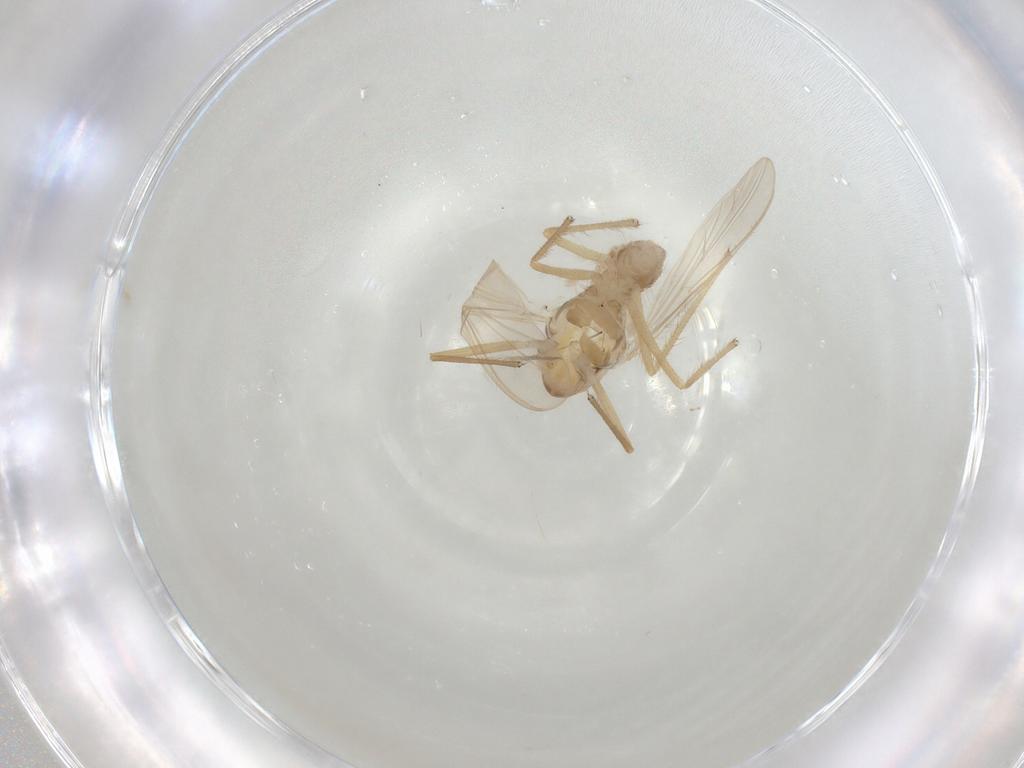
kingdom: Animalia
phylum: Arthropoda
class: Insecta
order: Diptera
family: Chironomidae
